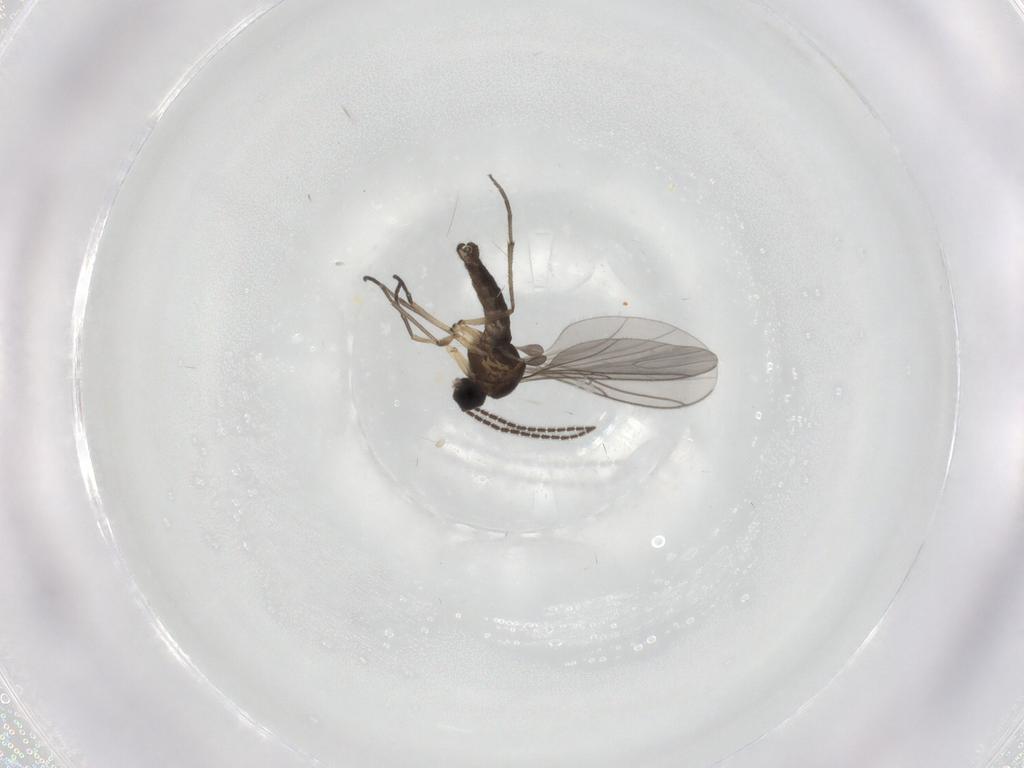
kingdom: Animalia
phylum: Arthropoda
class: Insecta
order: Diptera
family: Sciaridae
